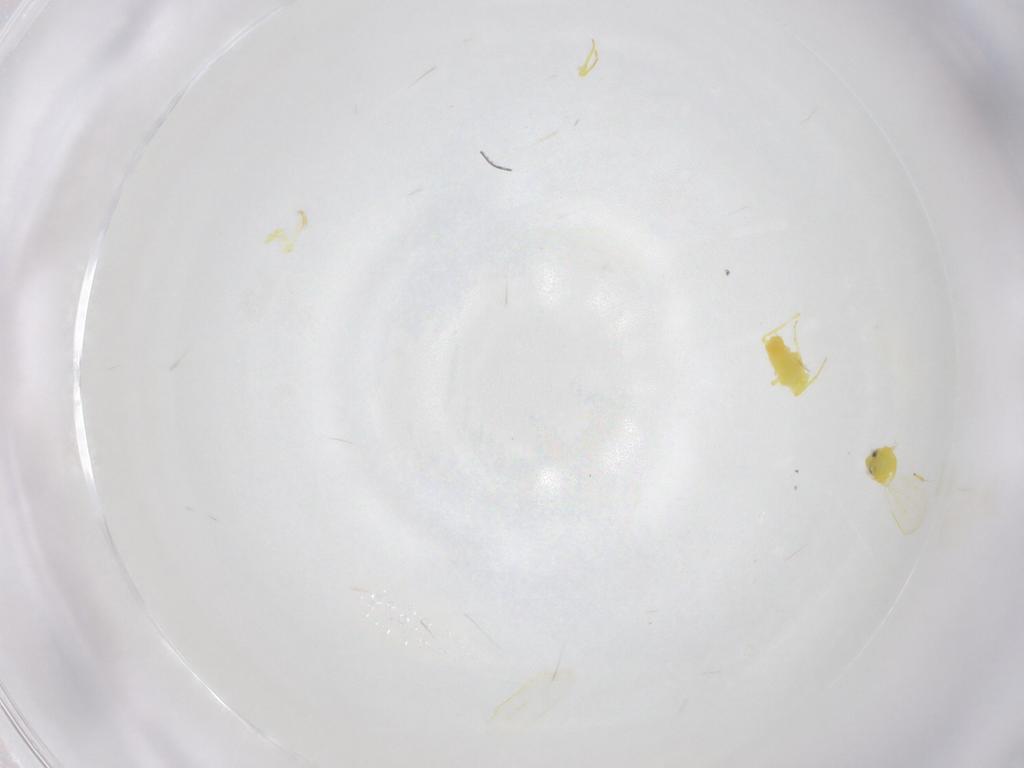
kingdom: Animalia
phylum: Arthropoda
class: Insecta
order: Hemiptera
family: Aleyrodidae
